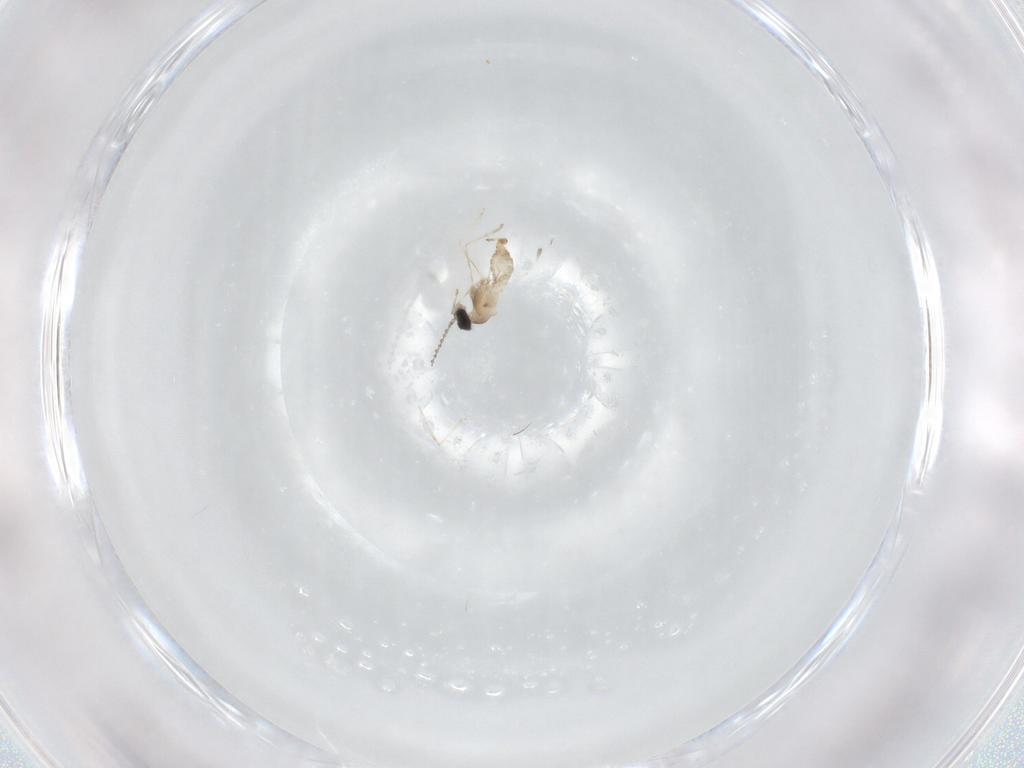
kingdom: Animalia
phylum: Arthropoda
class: Insecta
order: Diptera
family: Cecidomyiidae
